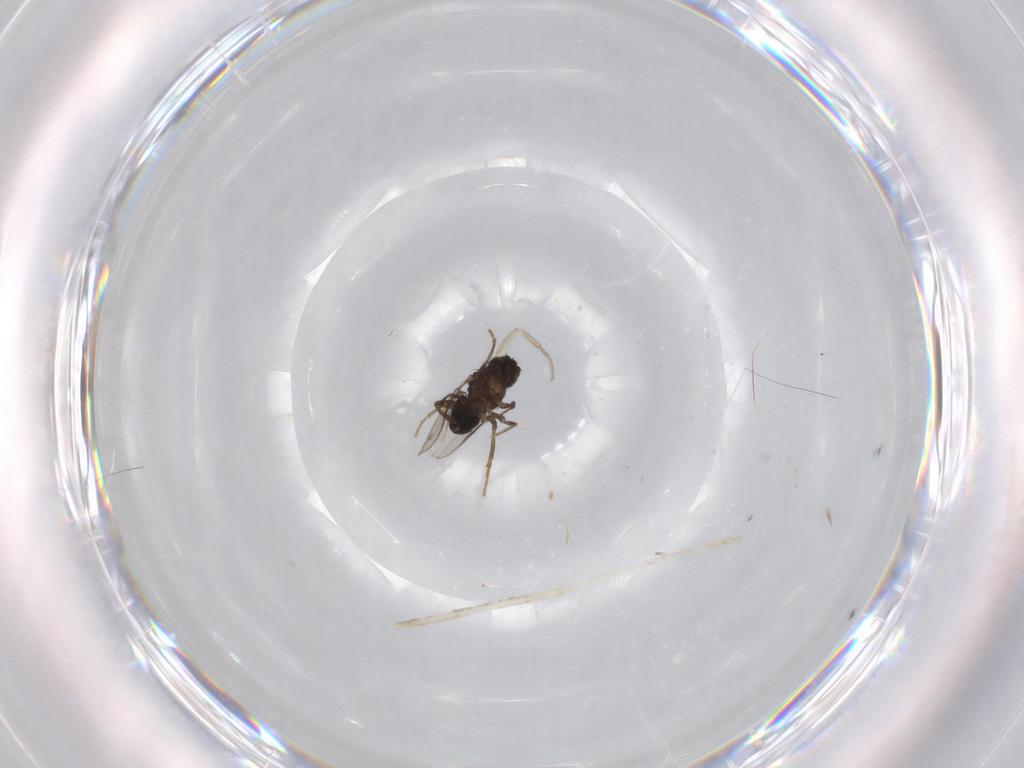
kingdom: Animalia
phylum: Arthropoda
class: Insecta
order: Diptera
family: Sphaeroceridae
